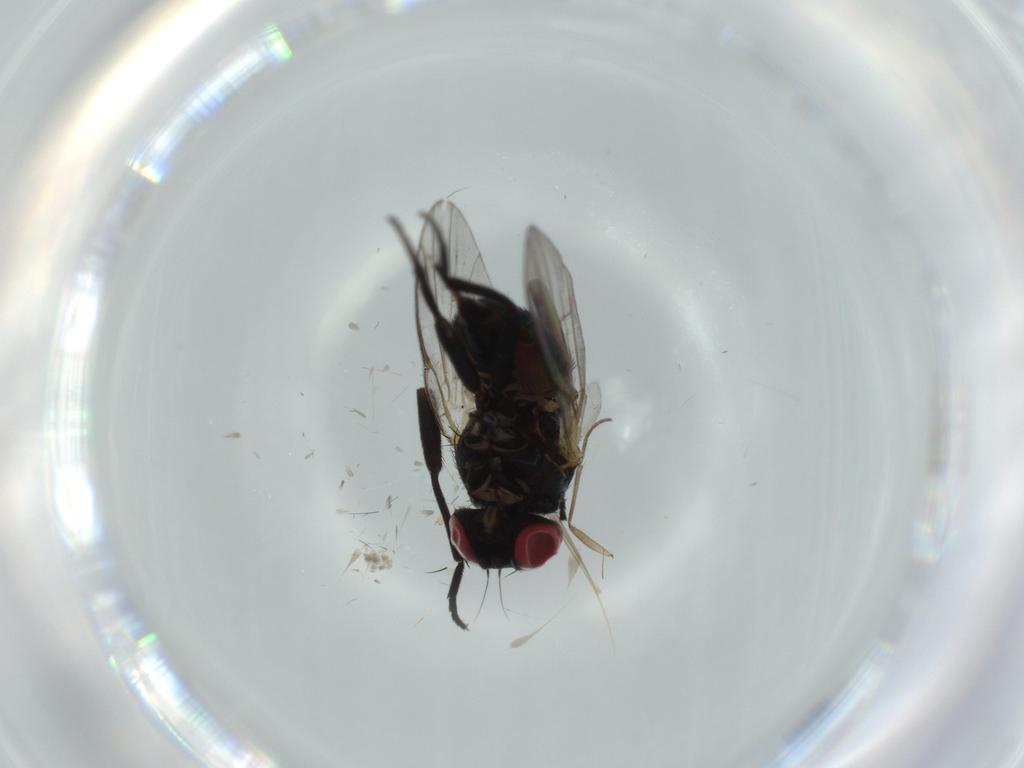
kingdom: Animalia
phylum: Arthropoda
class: Insecta
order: Diptera
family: Agromyzidae
